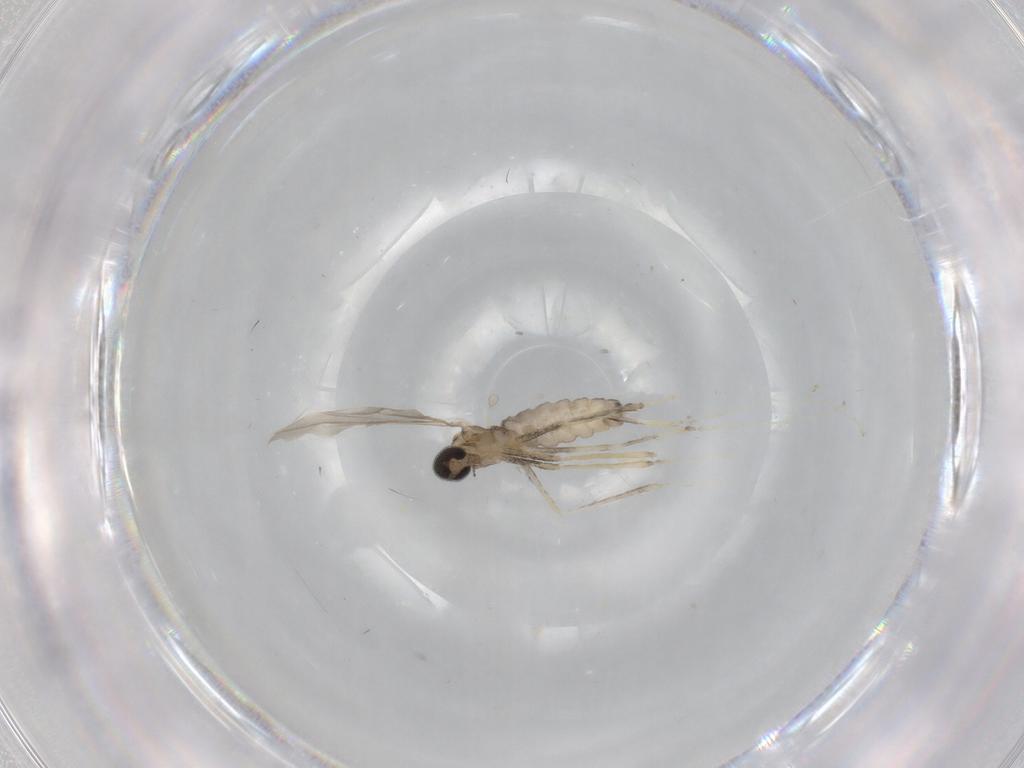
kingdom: Animalia
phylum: Arthropoda
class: Insecta
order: Diptera
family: Cecidomyiidae
